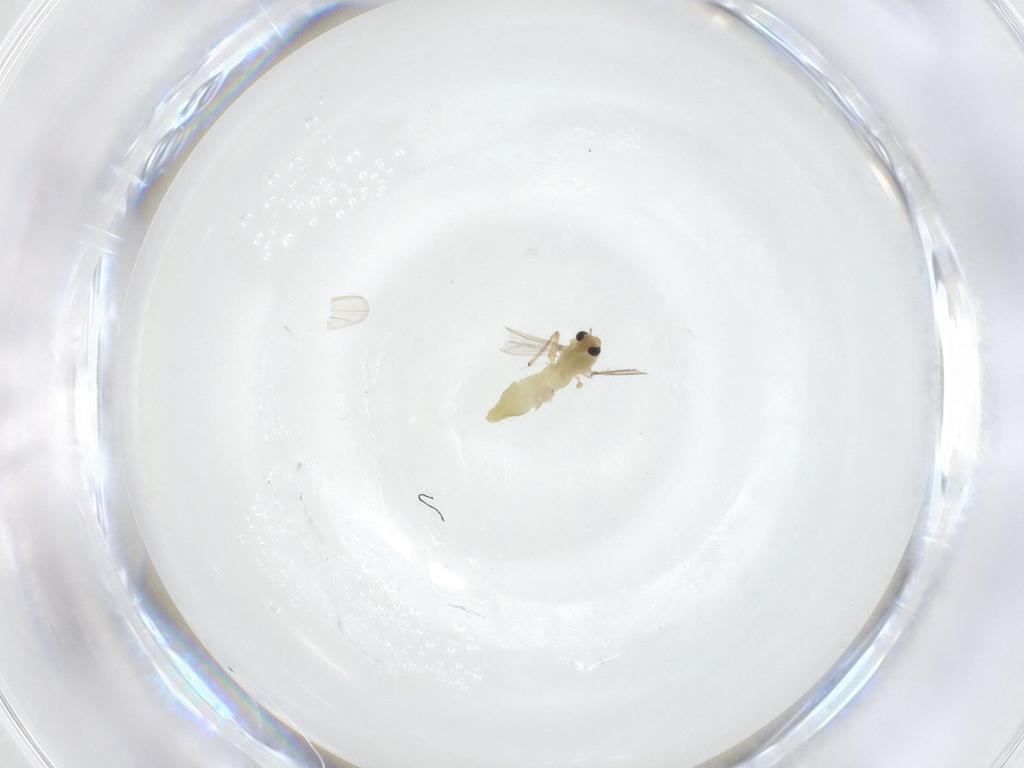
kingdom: Animalia
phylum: Arthropoda
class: Insecta
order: Diptera
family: Chironomidae
